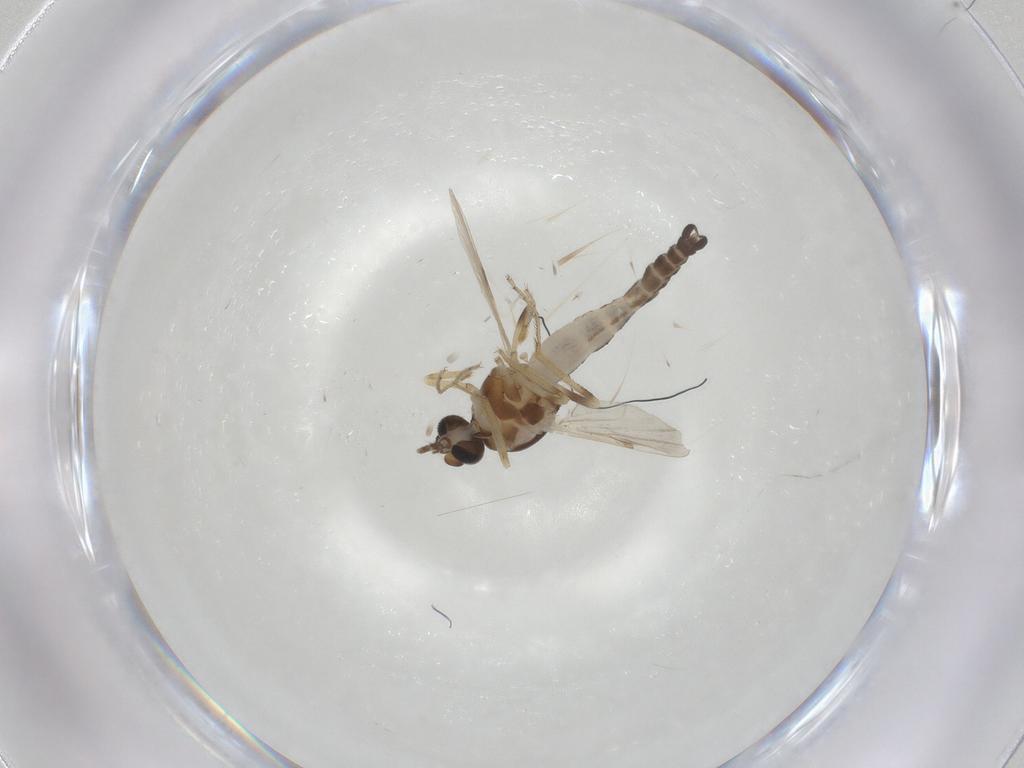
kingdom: Animalia
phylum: Arthropoda
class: Insecta
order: Diptera
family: Ceratopogonidae
